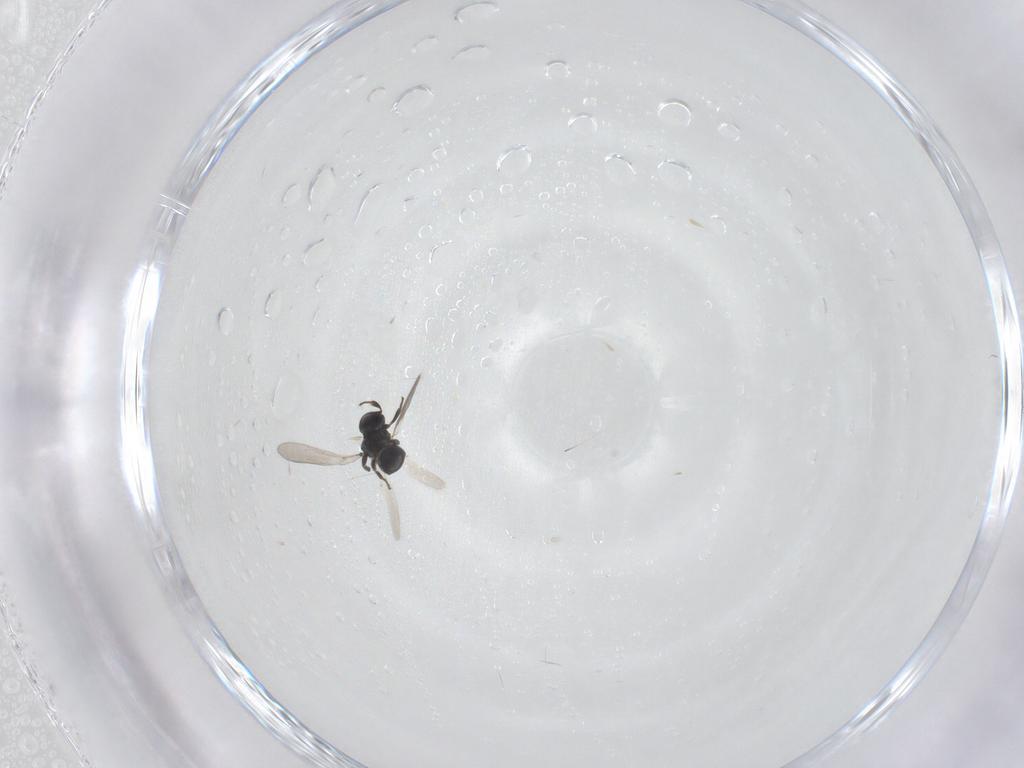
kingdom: Animalia
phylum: Arthropoda
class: Insecta
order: Hymenoptera
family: Platygastridae
